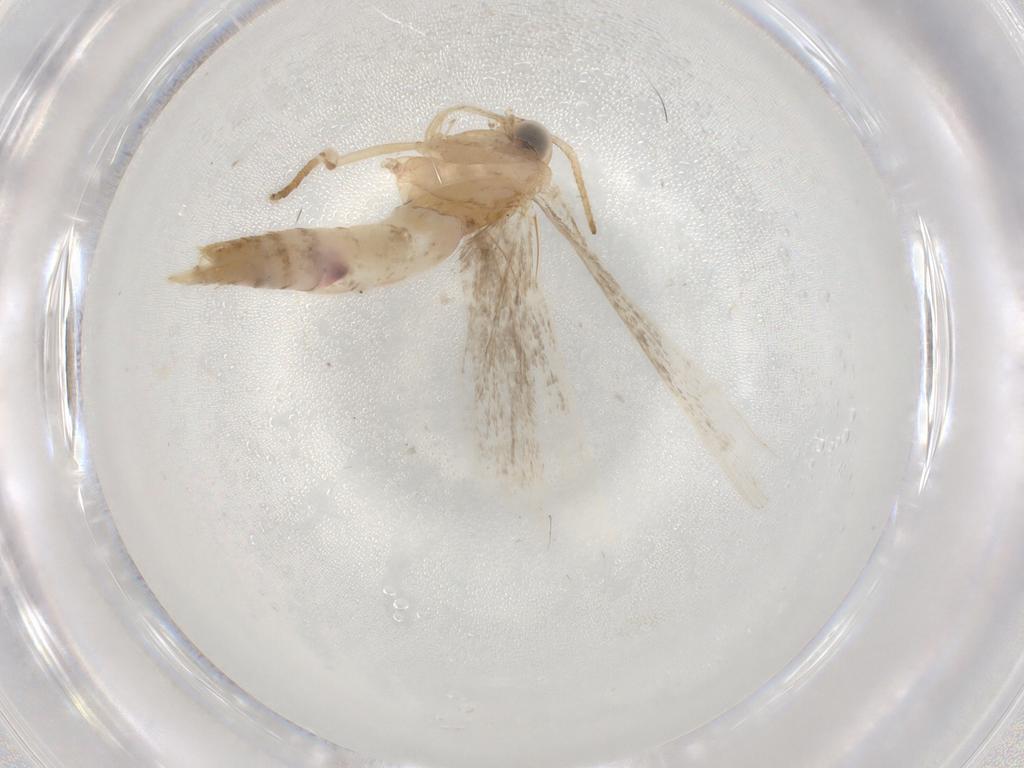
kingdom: Animalia
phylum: Arthropoda
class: Insecta
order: Lepidoptera
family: Gelechiidae
